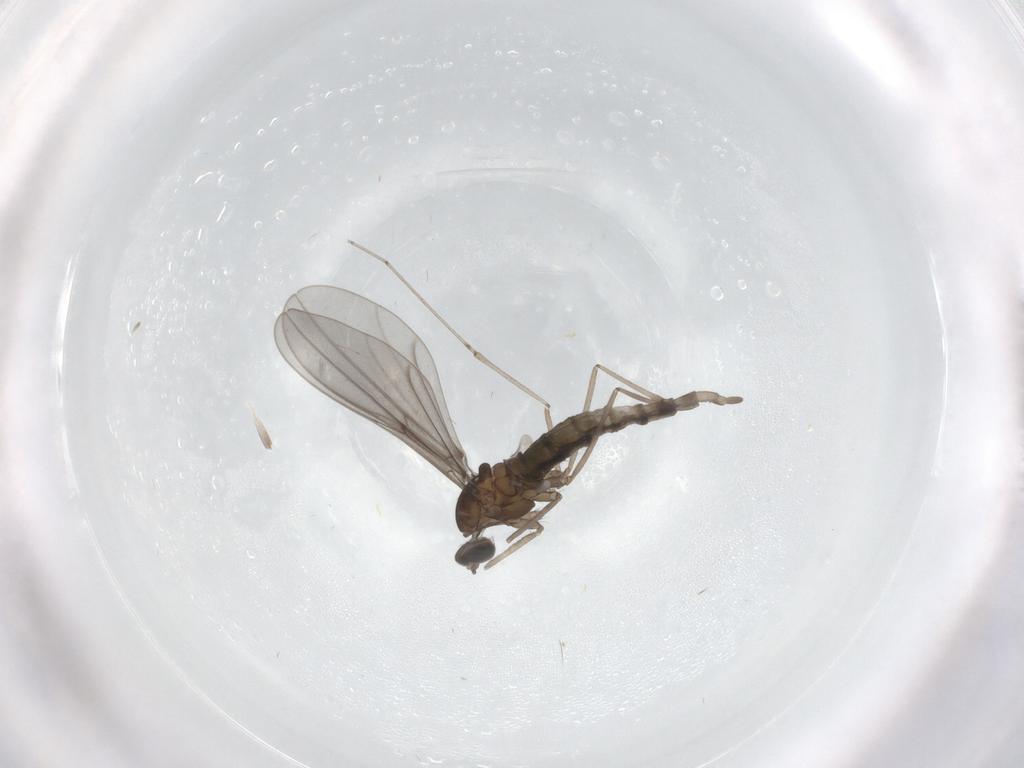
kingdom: Animalia
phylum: Arthropoda
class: Insecta
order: Diptera
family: Cecidomyiidae
